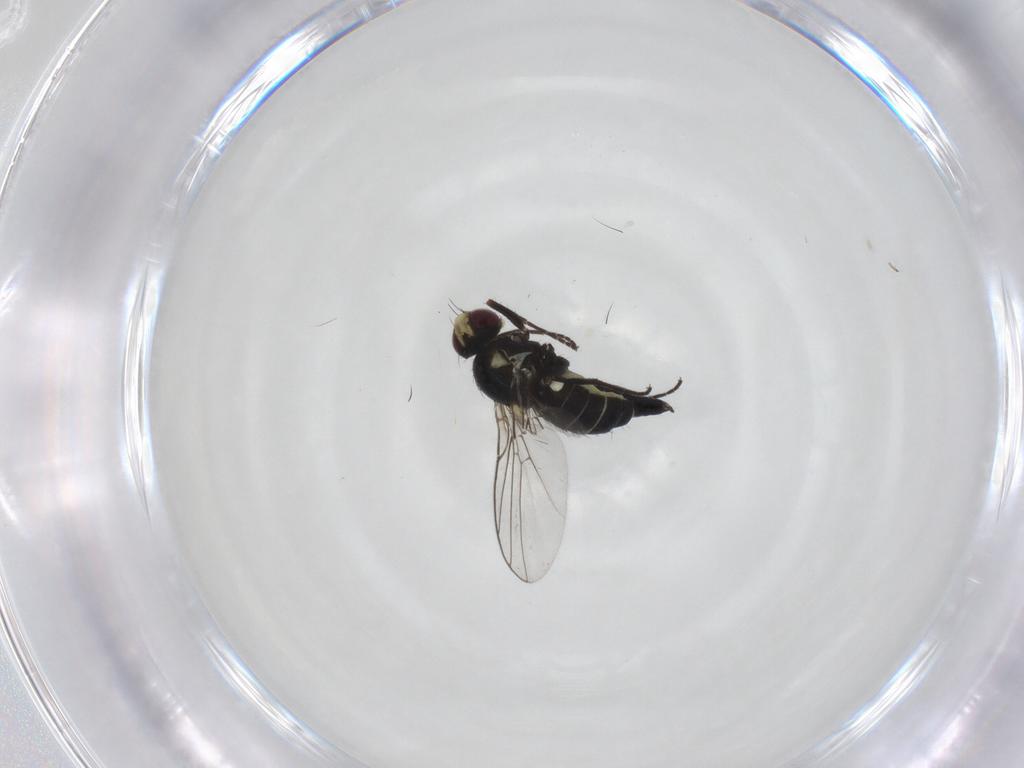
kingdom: Animalia
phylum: Arthropoda
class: Insecta
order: Diptera
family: Agromyzidae
